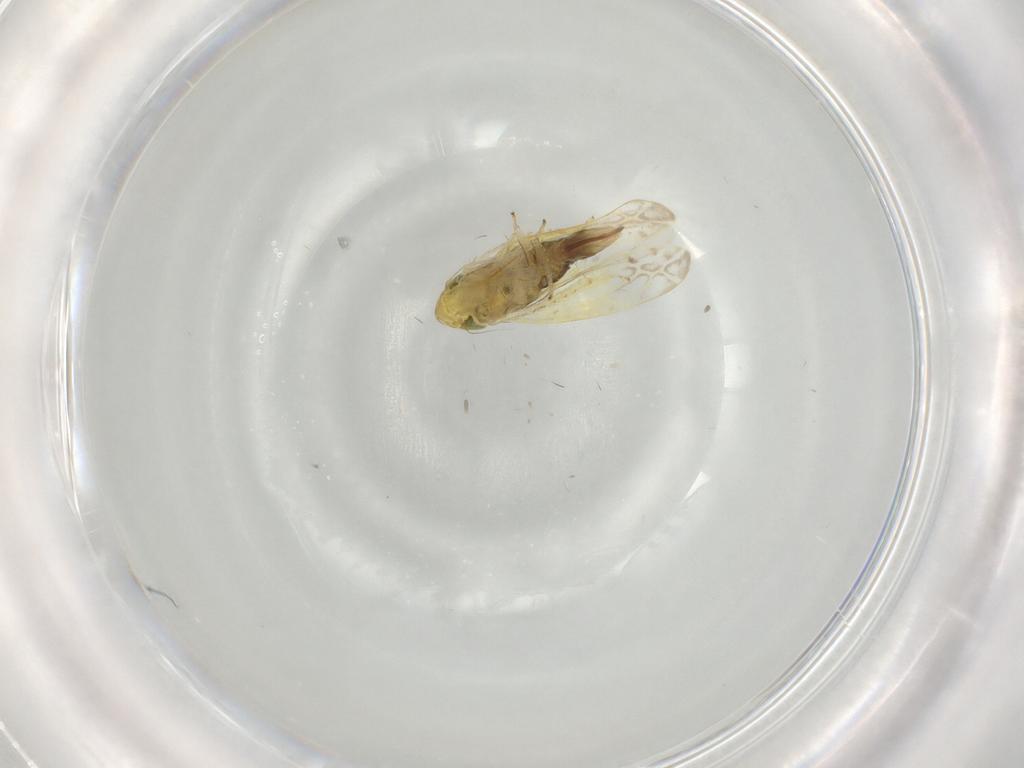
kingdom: Animalia
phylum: Arthropoda
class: Insecta
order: Hemiptera
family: Cicadellidae
